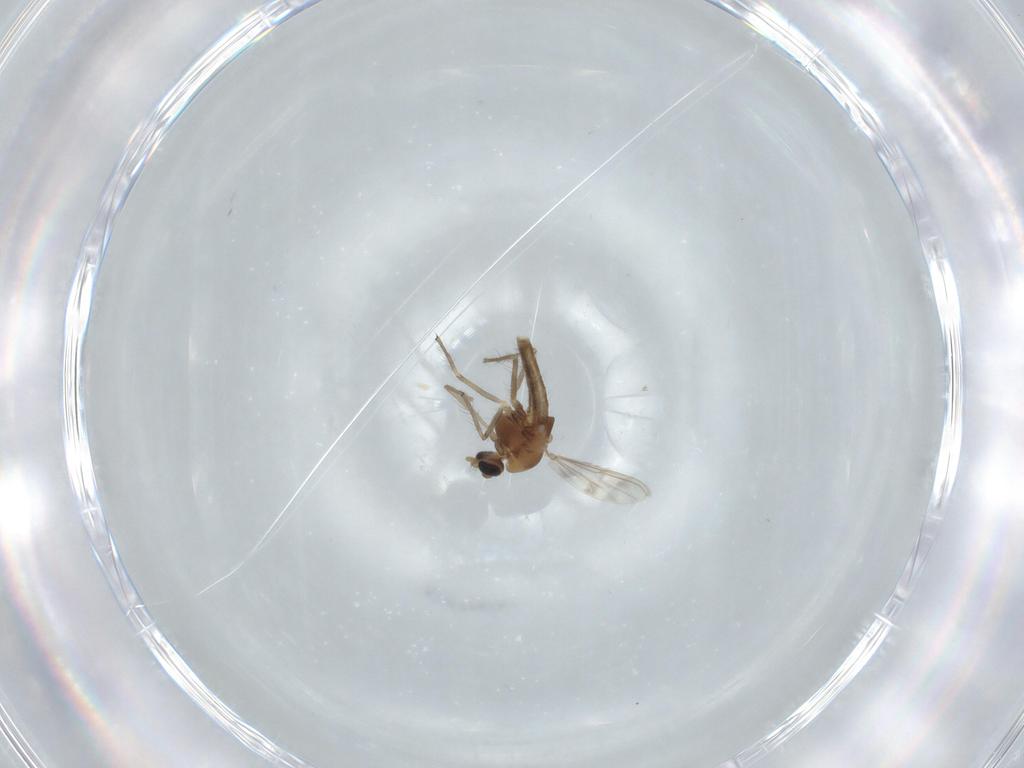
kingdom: Animalia
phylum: Arthropoda
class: Insecta
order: Diptera
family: Chironomidae
